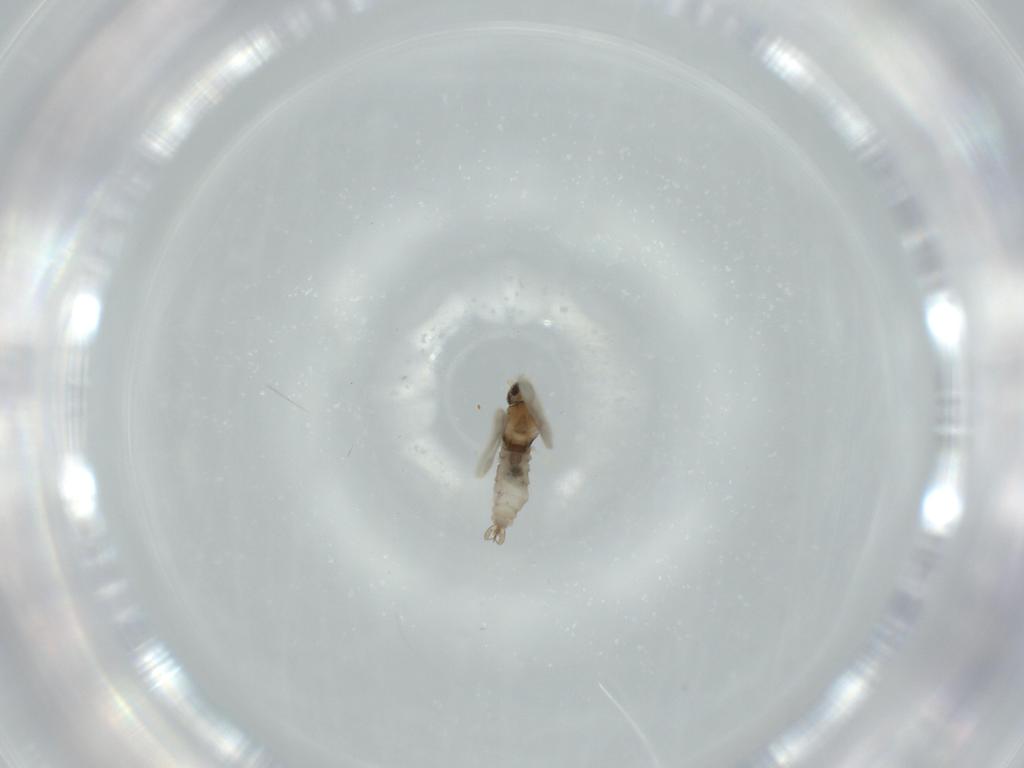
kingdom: Animalia
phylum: Arthropoda
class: Insecta
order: Diptera
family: Cecidomyiidae
